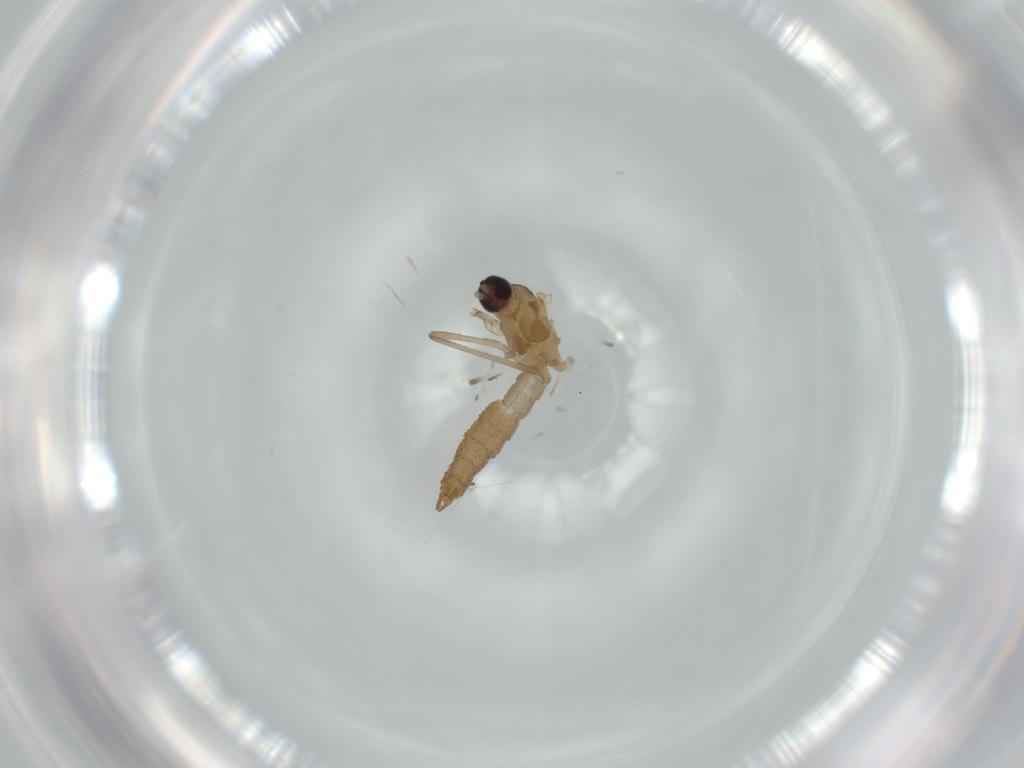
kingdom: Animalia
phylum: Arthropoda
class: Insecta
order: Diptera
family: Cecidomyiidae
